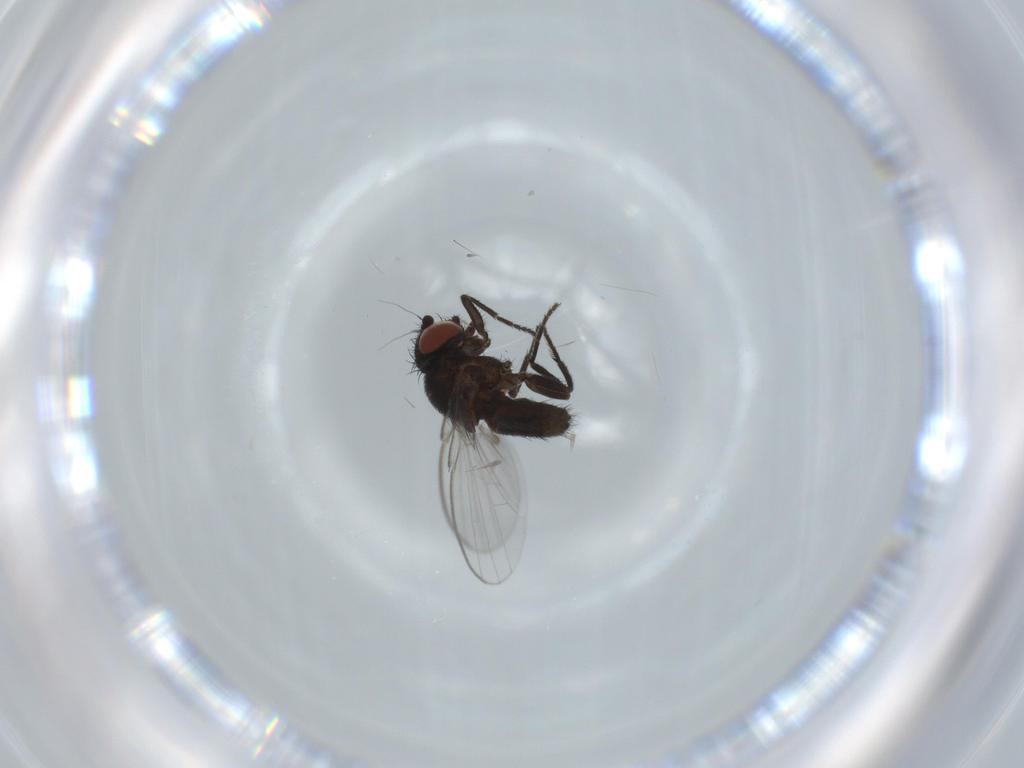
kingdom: Animalia
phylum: Arthropoda
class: Insecta
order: Diptera
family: Milichiidae
